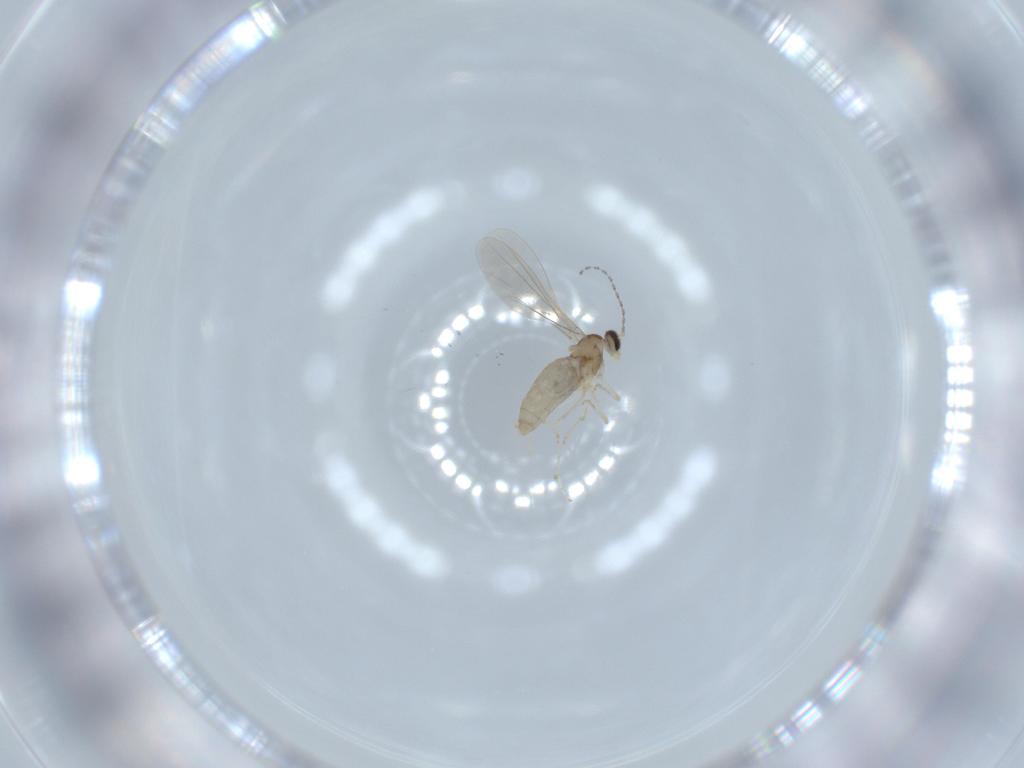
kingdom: Animalia
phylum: Arthropoda
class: Insecta
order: Diptera
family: Cecidomyiidae
